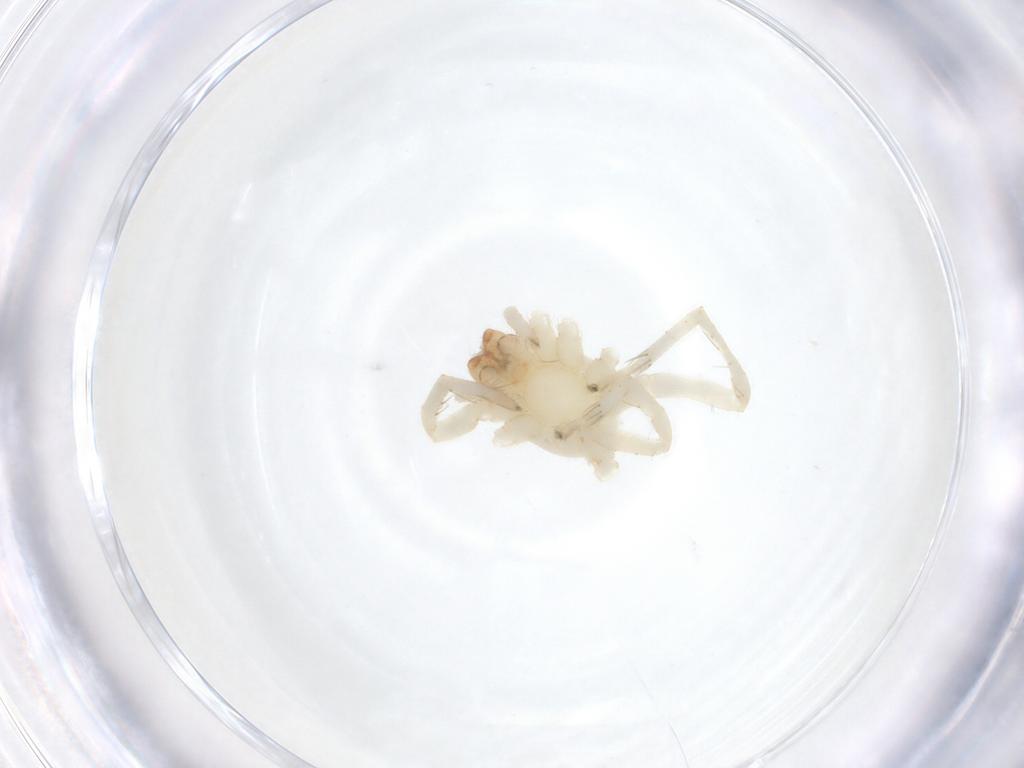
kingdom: Animalia
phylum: Arthropoda
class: Arachnida
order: Araneae
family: Clubionidae
